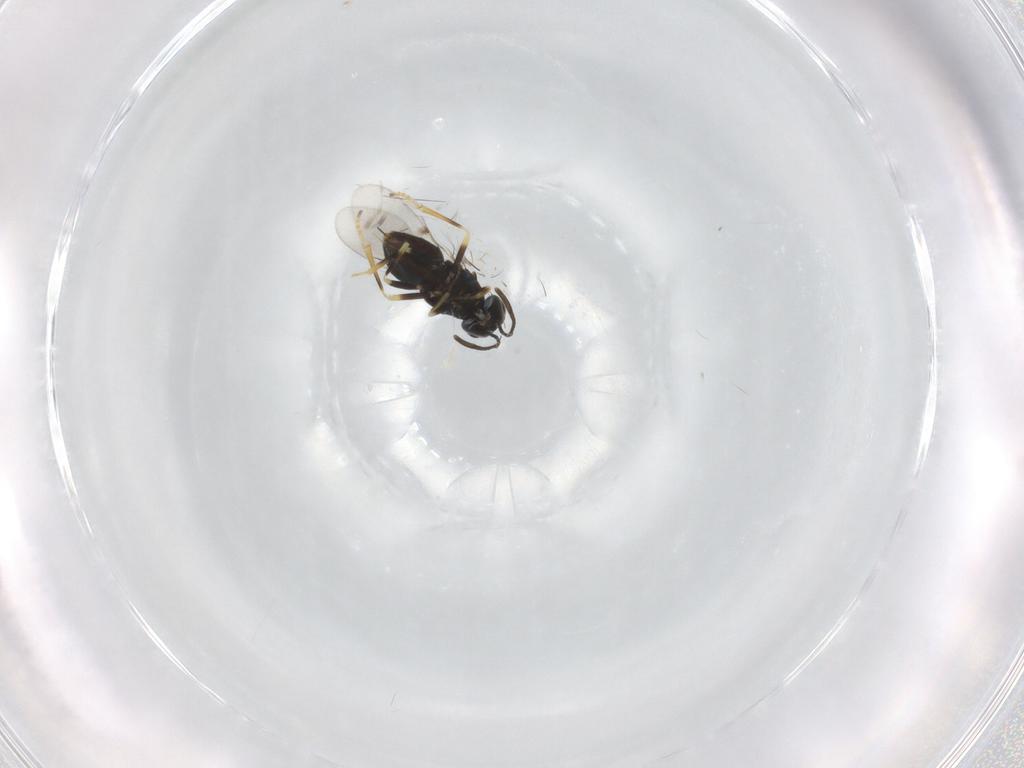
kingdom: Animalia
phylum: Arthropoda
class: Insecta
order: Hymenoptera
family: Encyrtidae
